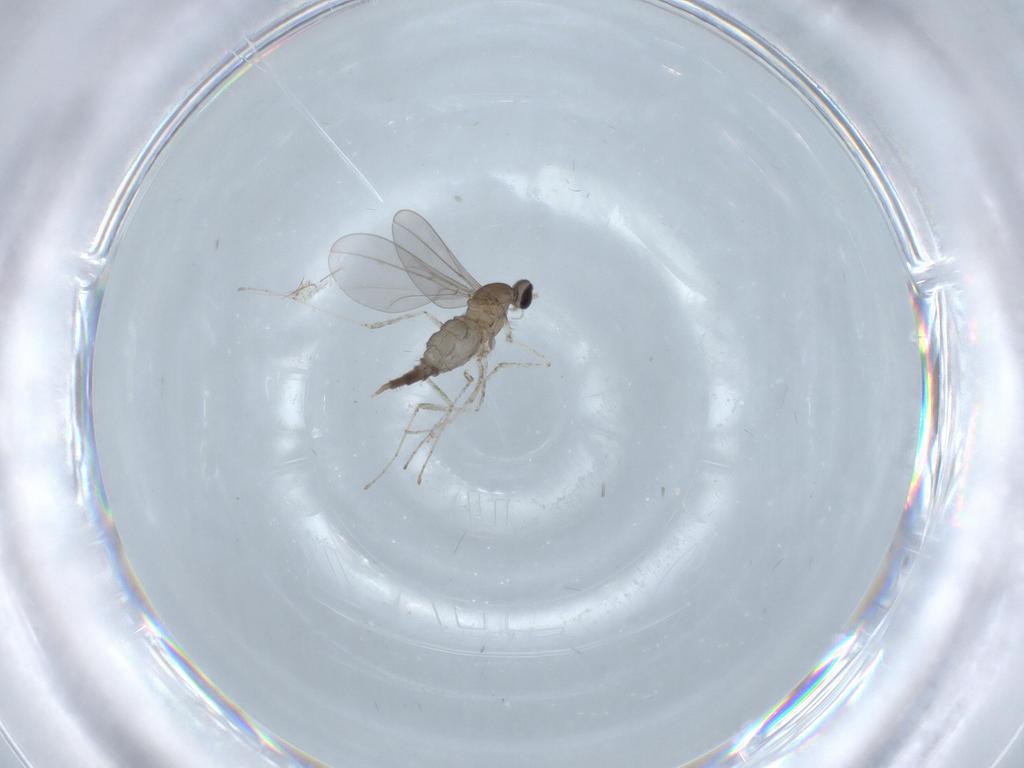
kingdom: Animalia
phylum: Arthropoda
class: Insecta
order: Diptera
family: Cecidomyiidae
